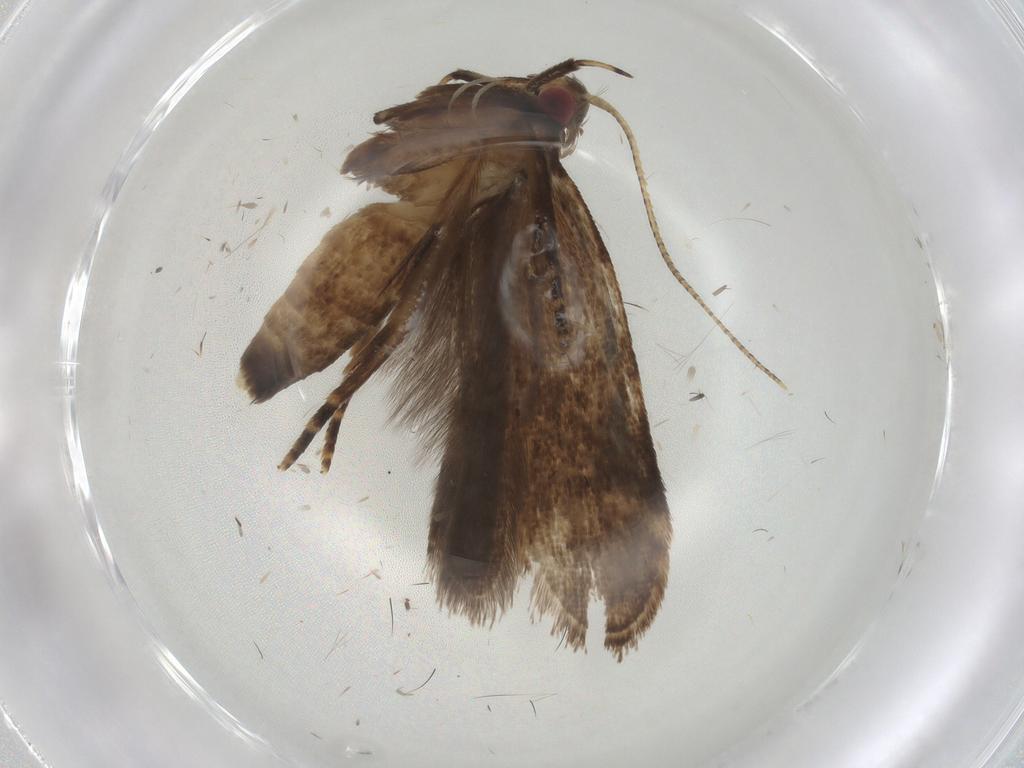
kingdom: Animalia
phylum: Arthropoda
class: Insecta
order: Lepidoptera
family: Gelechiidae
